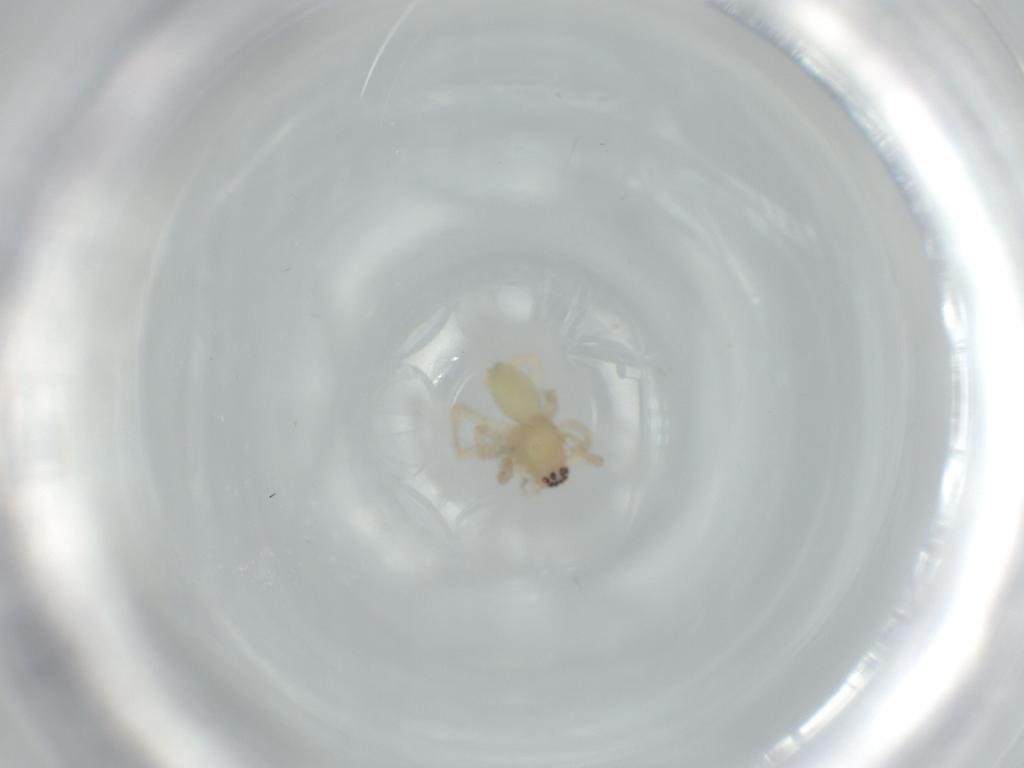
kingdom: Animalia
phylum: Arthropoda
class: Arachnida
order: Araneae
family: Anyphaenidae
